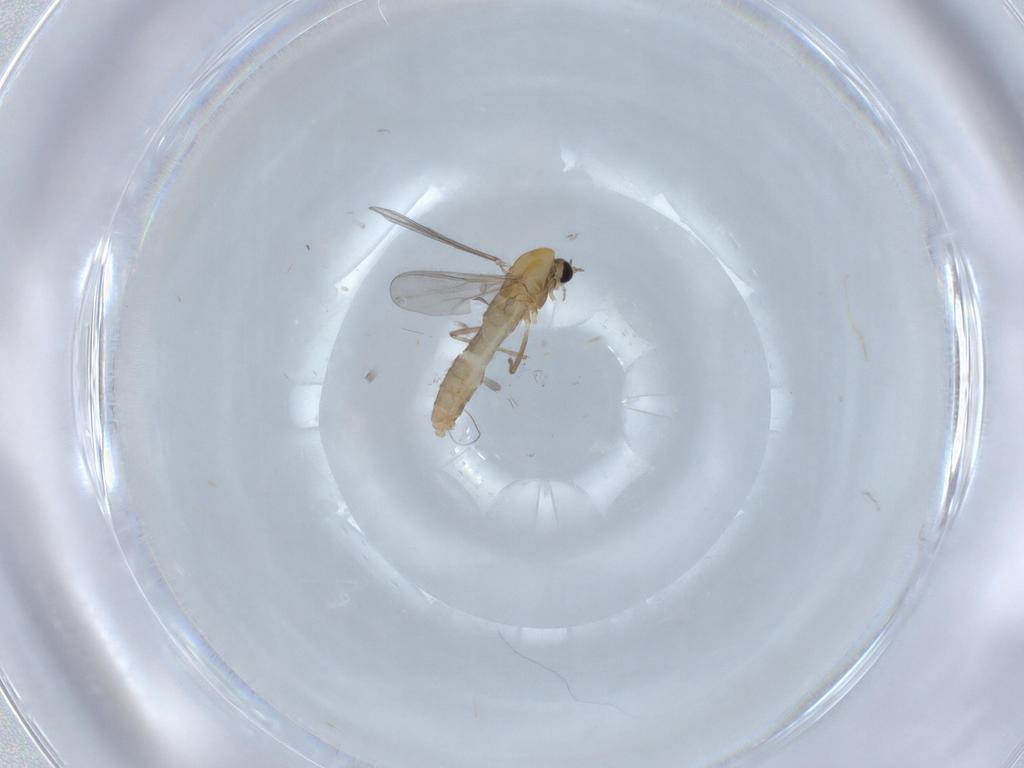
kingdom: Animalia
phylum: Arthropoda
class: Insecta
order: Diptera
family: Chironomidae
